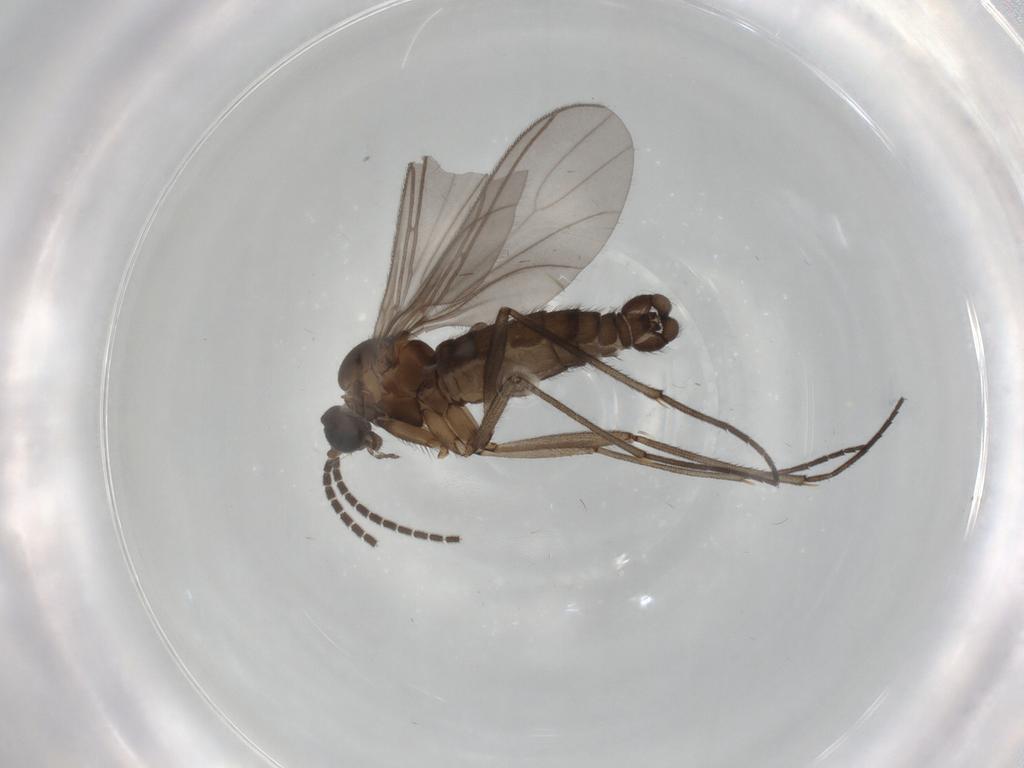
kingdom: Animalia
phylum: Arthropoda
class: Insecta
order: Diptera
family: Sciaridae
